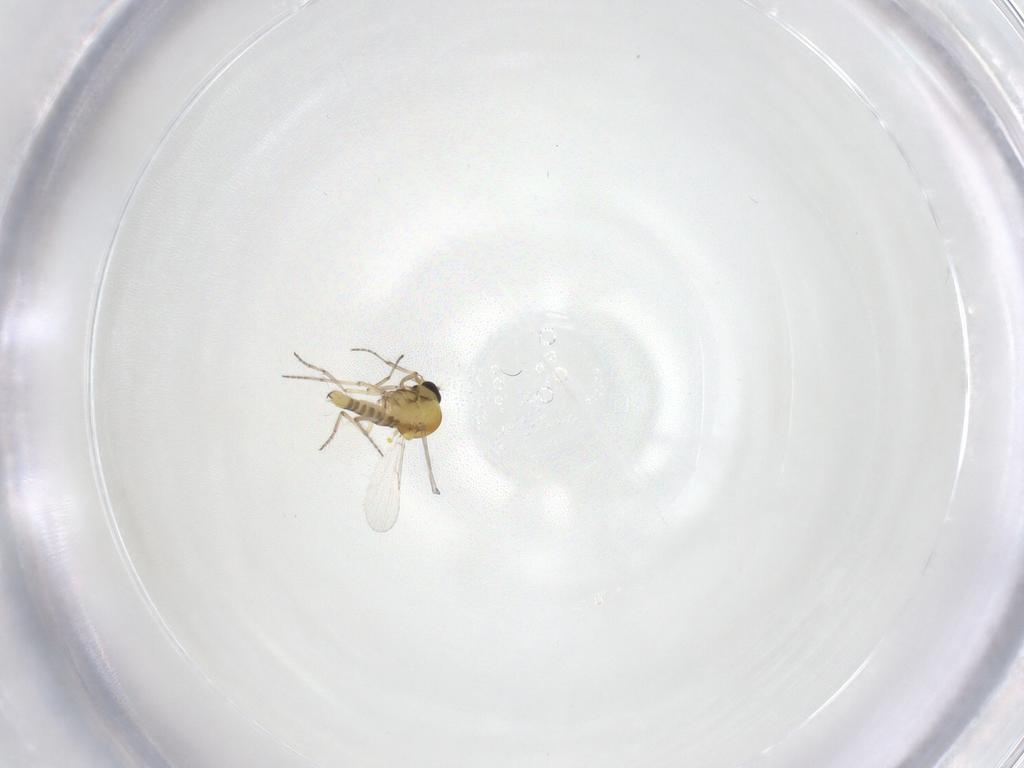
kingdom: Animalia
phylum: Arthropoda
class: Insecta
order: Diptera
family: Ceratopogonidae
